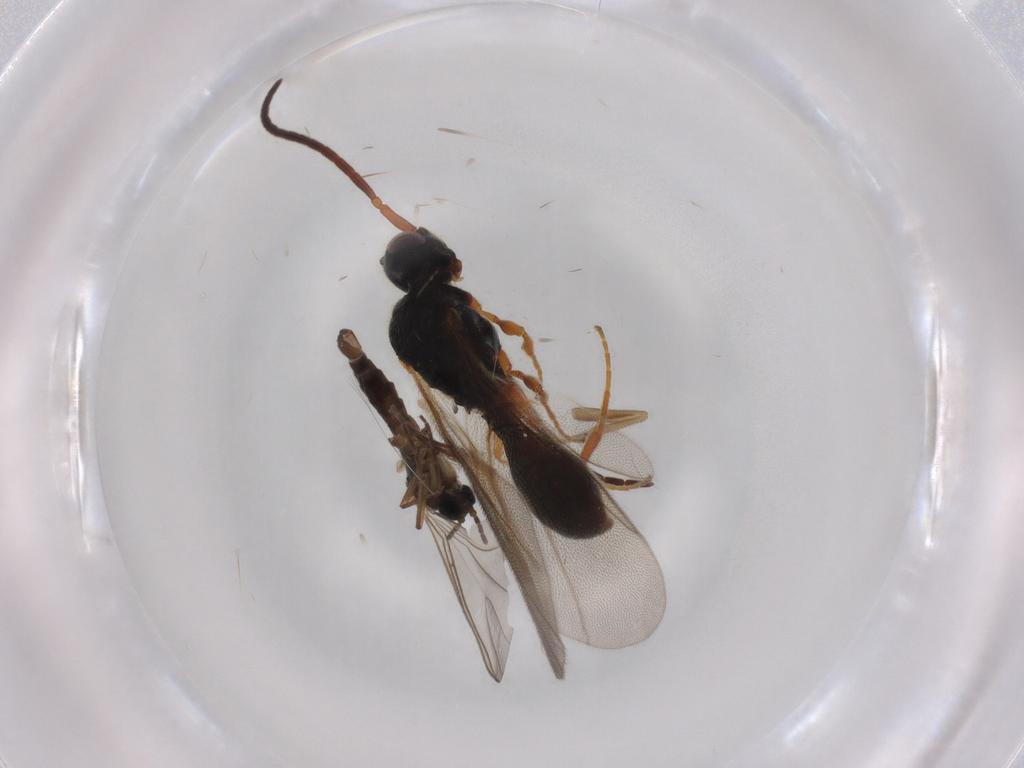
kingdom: Animalia
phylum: Arthropoda
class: Insecta
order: Diptera
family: Phoridae
